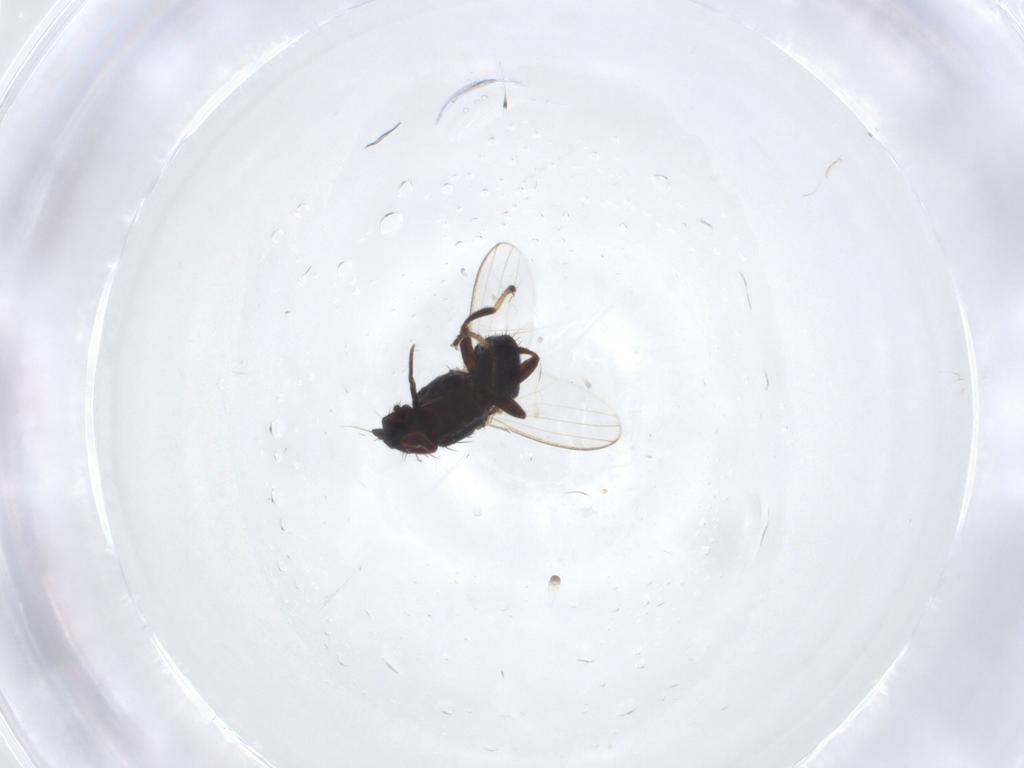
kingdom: Animalia
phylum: Arthropoda
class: Insecta
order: Diptera
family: Milichiidae
